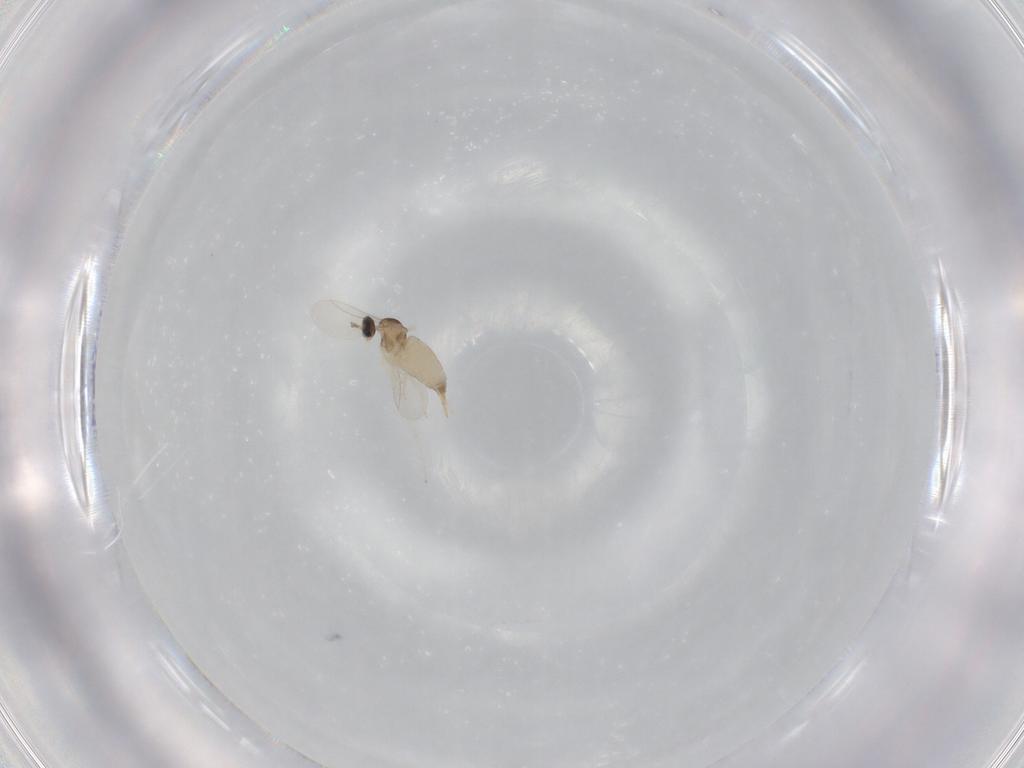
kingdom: Animalia
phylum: Arthropoda
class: Insecta
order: Diptera
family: Cecidomyiidae
